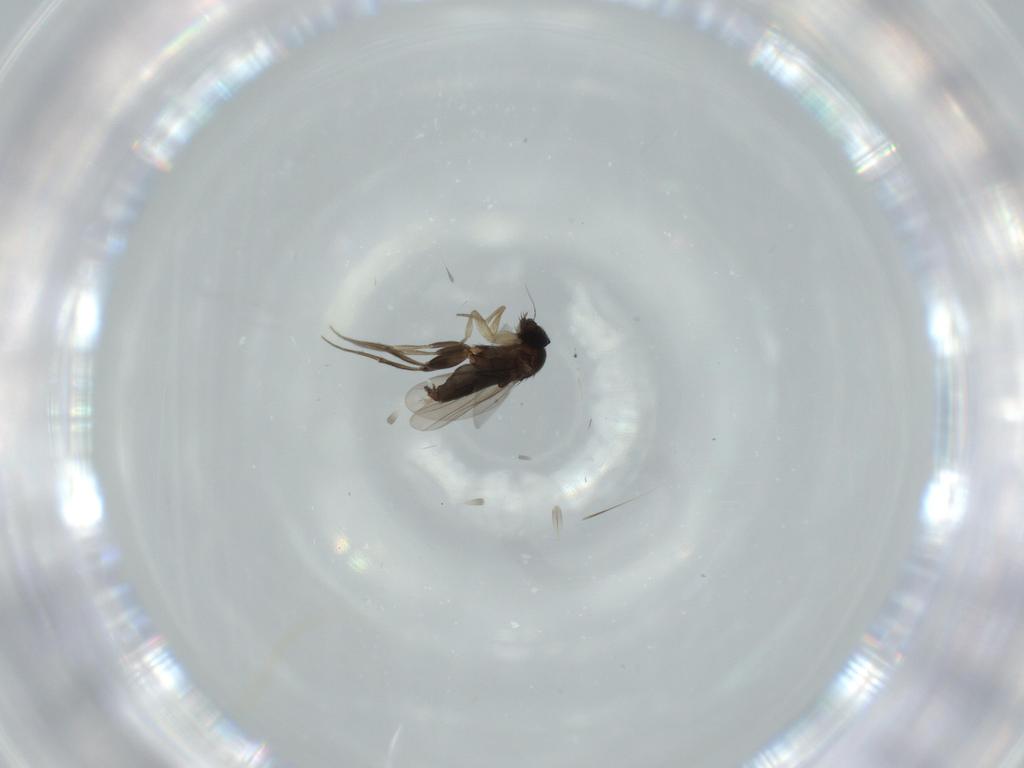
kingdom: Animalia
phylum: Arthropoda
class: Insecta
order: Diptera
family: Phoridae
